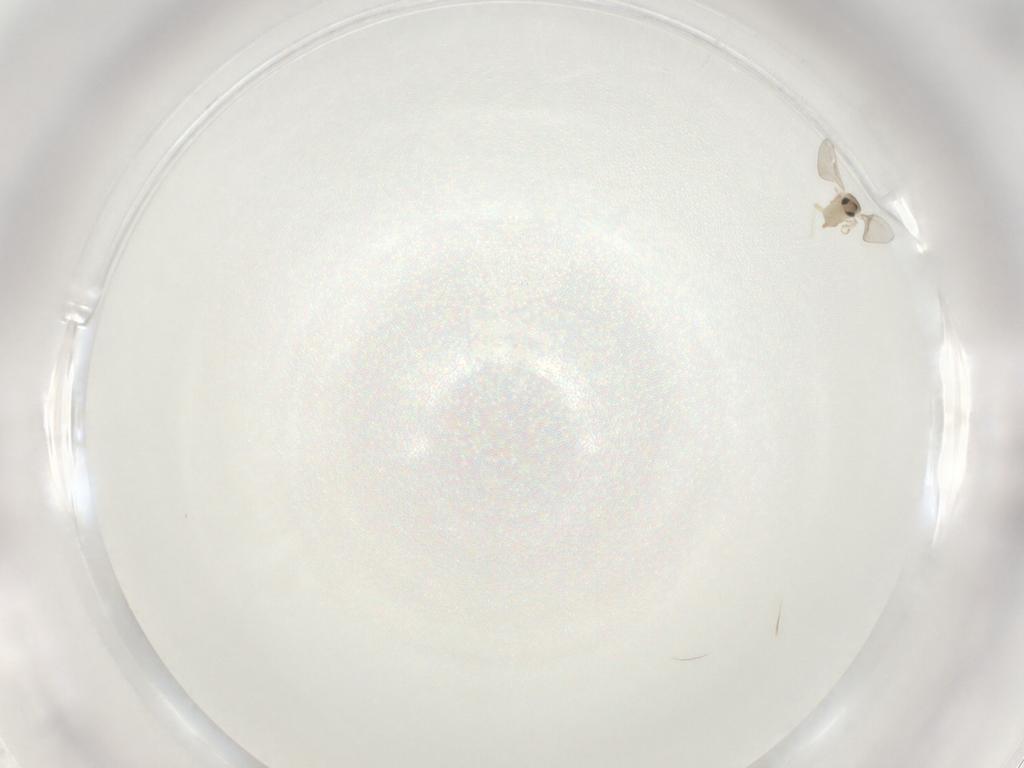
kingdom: Animalia
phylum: Arthropoda
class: Insecta
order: Diptera
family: Cecidomyiidae
